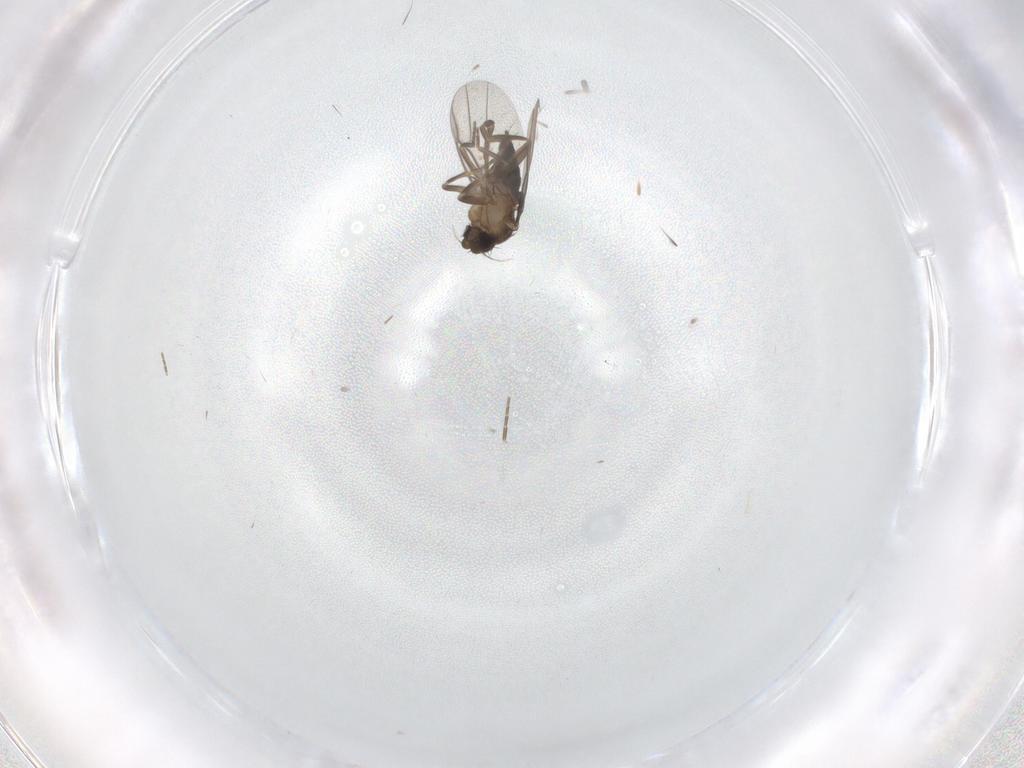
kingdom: Animalia
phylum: Arthropoda
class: Insecta
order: Diptera
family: Phoridae
